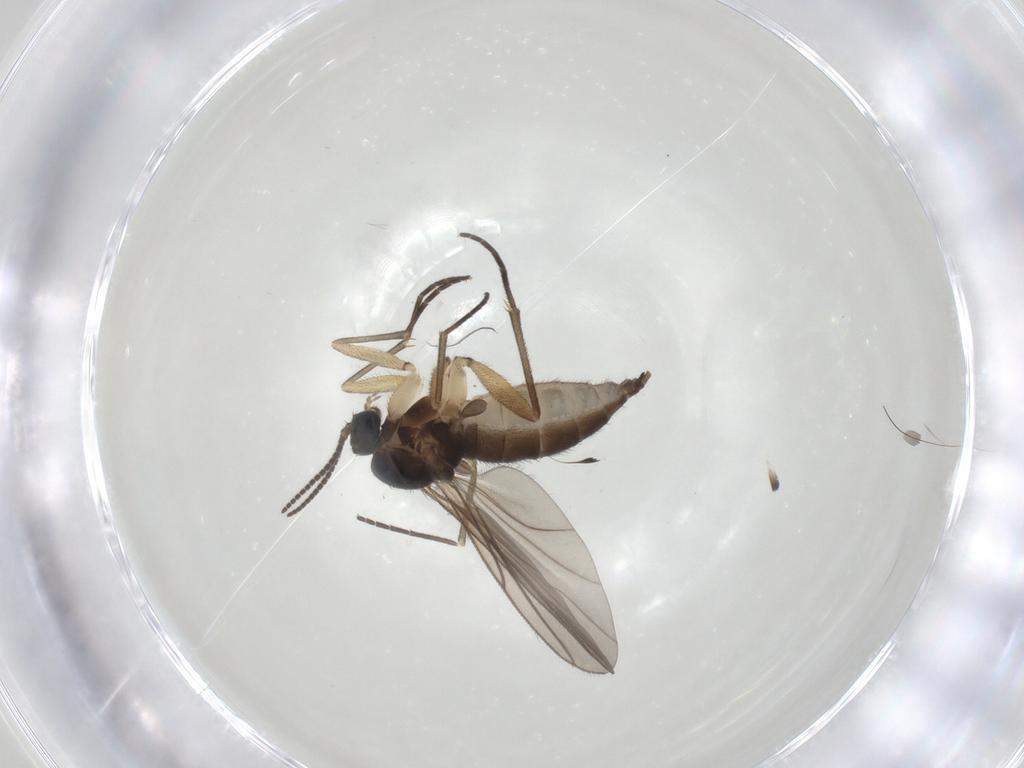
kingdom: Animalia
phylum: Arthropoda
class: Insecta
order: Diptera
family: Sciaridae
